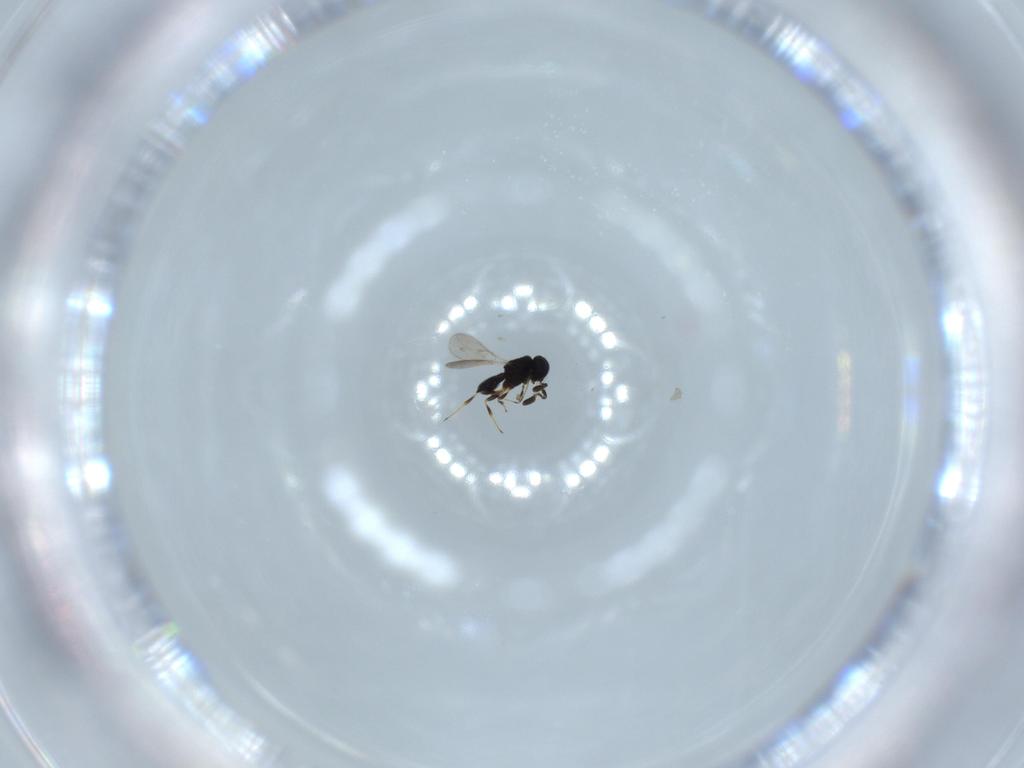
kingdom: Animalia
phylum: Arthropoda
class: Insecta
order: Hymenoptera
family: Scelionidae
